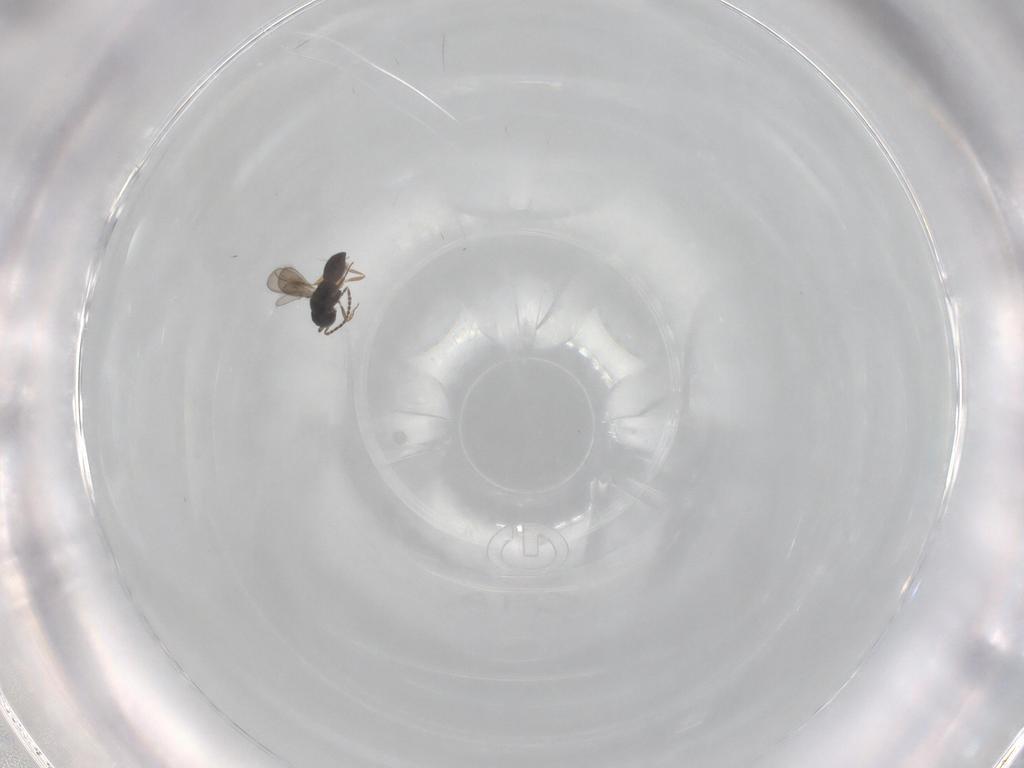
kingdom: Animalia
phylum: Arthropoda
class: Insecta
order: Hymenoptera
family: Scelionidae
